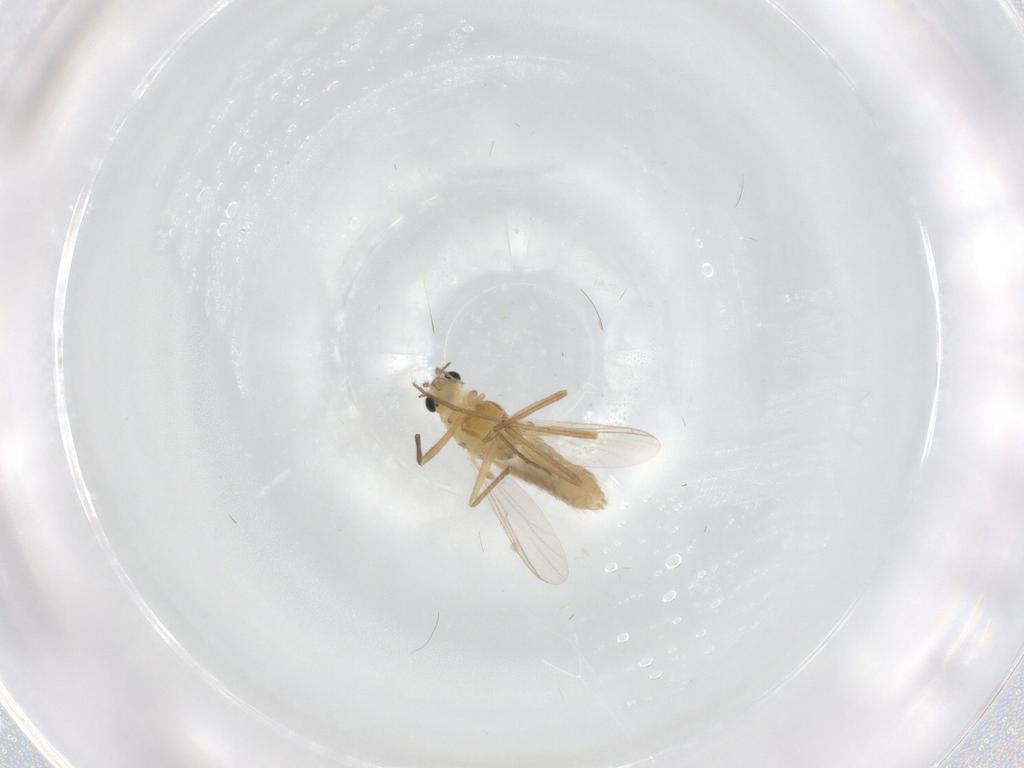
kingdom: Animalia
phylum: Arthropoda
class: Insecta
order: Diptera
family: Chironomidae
